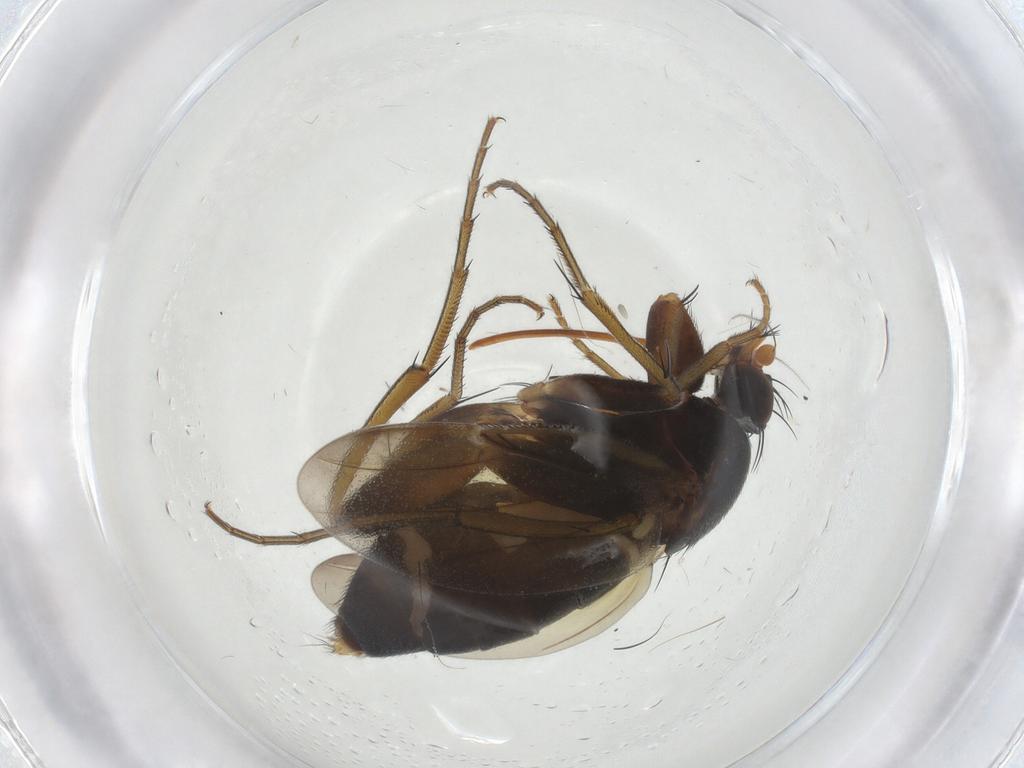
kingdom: Animalia
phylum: Arthropoda
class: Insecta
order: Diptera
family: Phoridae
